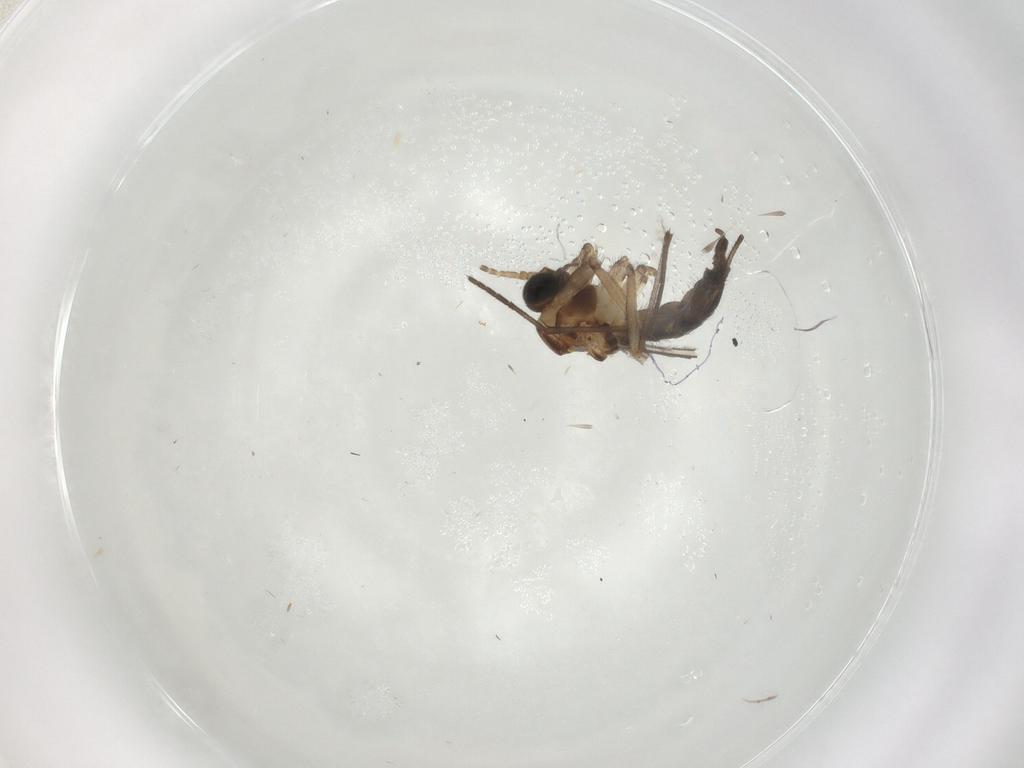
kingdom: Animalia
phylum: Arthropoda
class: Insecta
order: Diptera
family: Sciaridae
